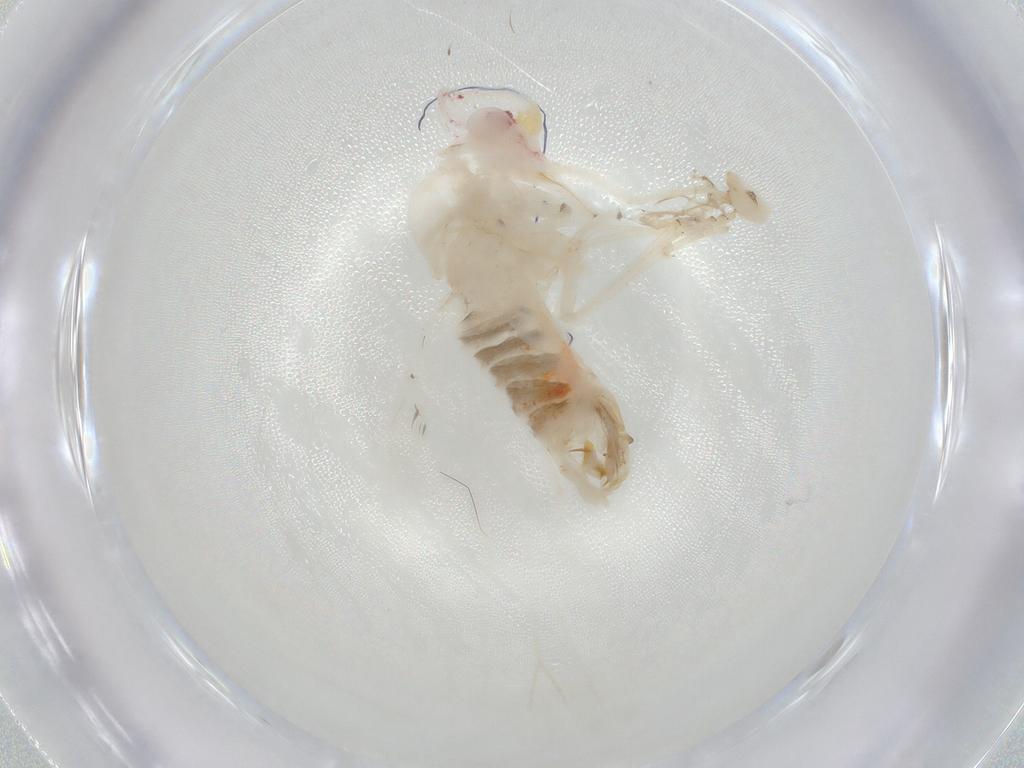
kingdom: Animalia
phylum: Arthropoda
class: Insecta
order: Hemiptera
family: Derbidae
